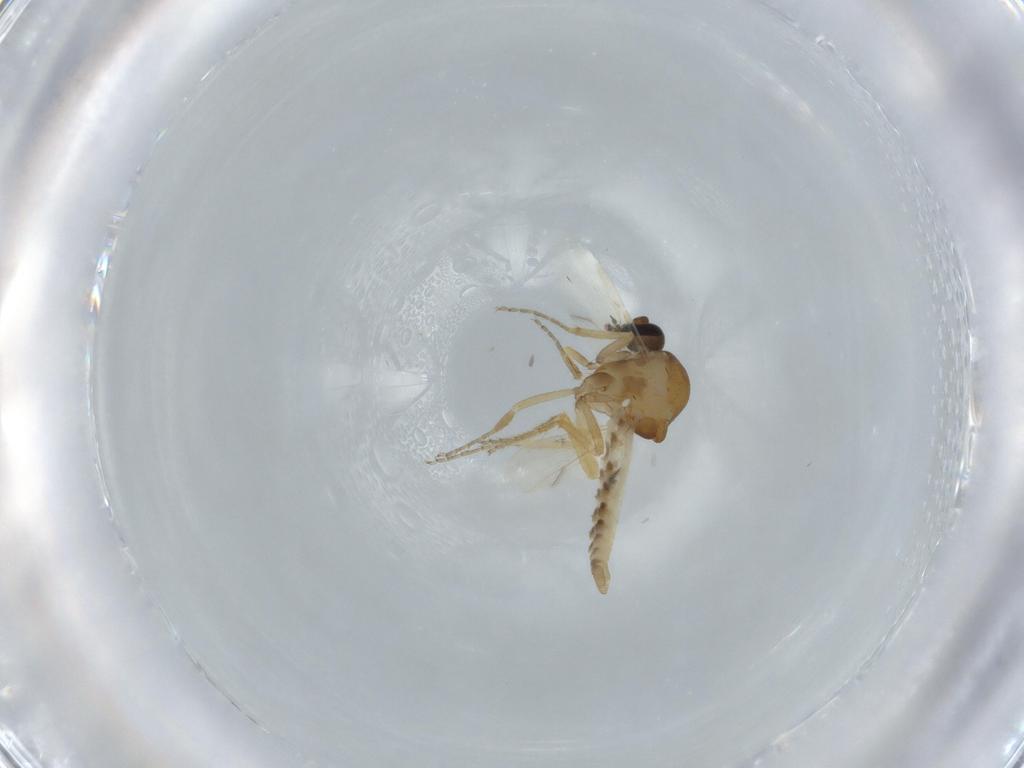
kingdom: Animalia
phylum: Arthropoda
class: Insecta
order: Diptera
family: Ceratopogonidae
